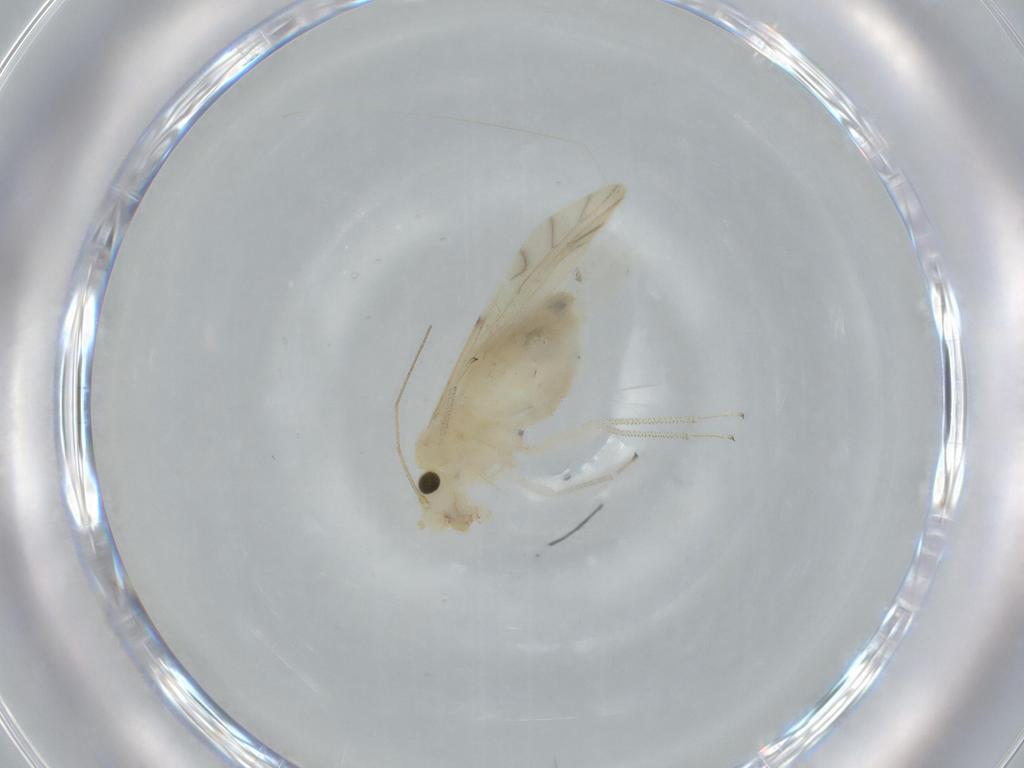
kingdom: Animalia
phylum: Arthropoda
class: Insecta
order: Psocodea
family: Caeciliusidae
